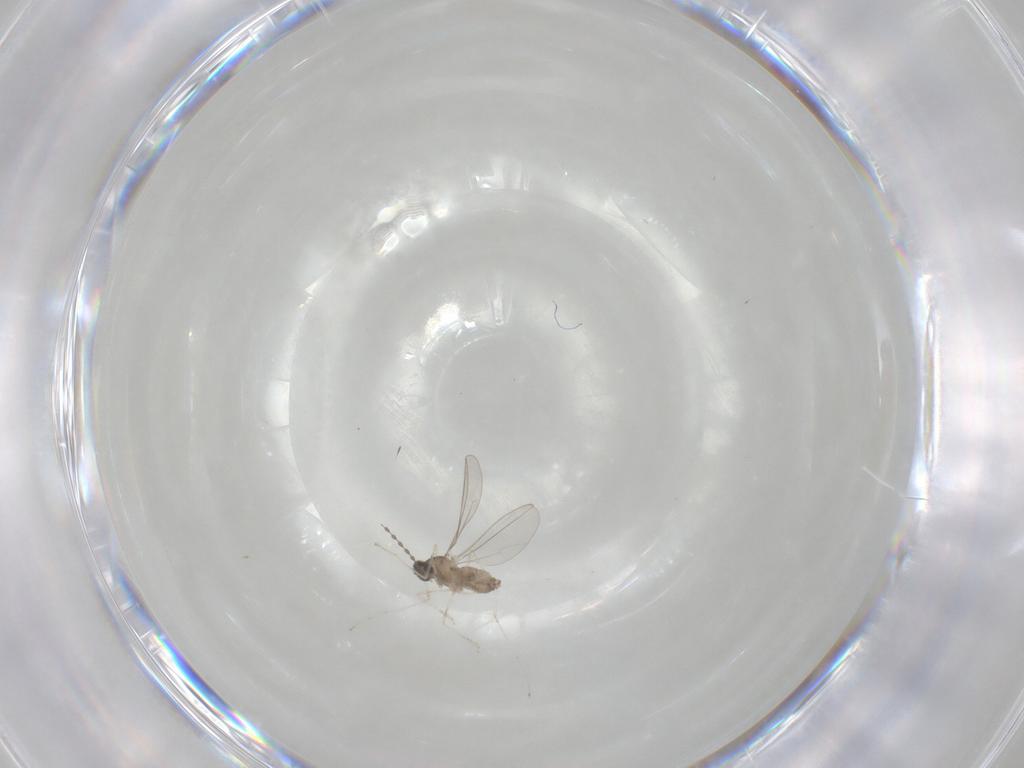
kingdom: Animalia
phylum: Arthropoda
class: Insecta
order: Diptera
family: Cecidomyiidae
